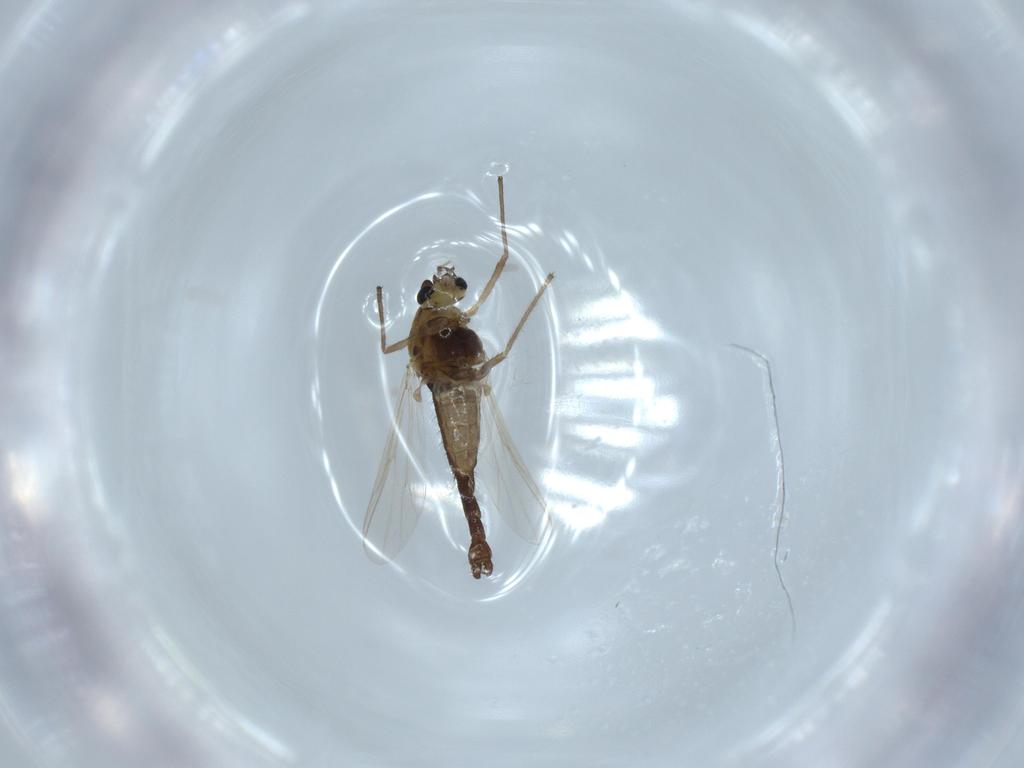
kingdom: Animalia
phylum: Arthropoda
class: Insecta
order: Diptera
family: Chironomidae
